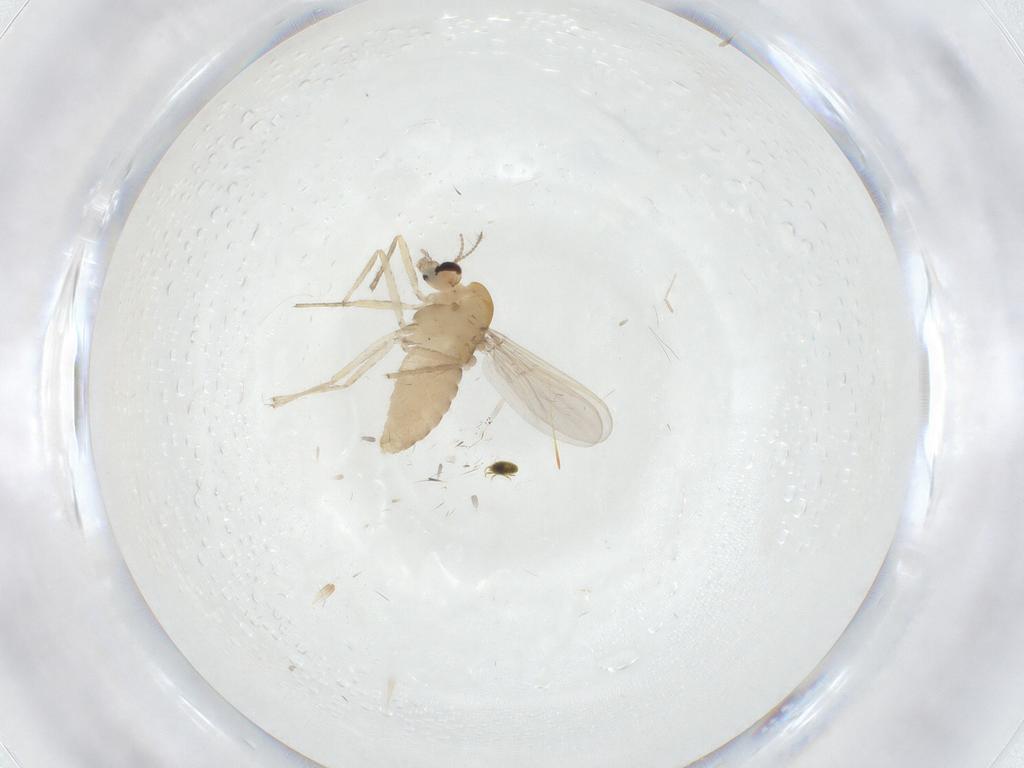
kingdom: Animalia
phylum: Arthropoda
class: Insecta
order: Diptera
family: Chironomidae
